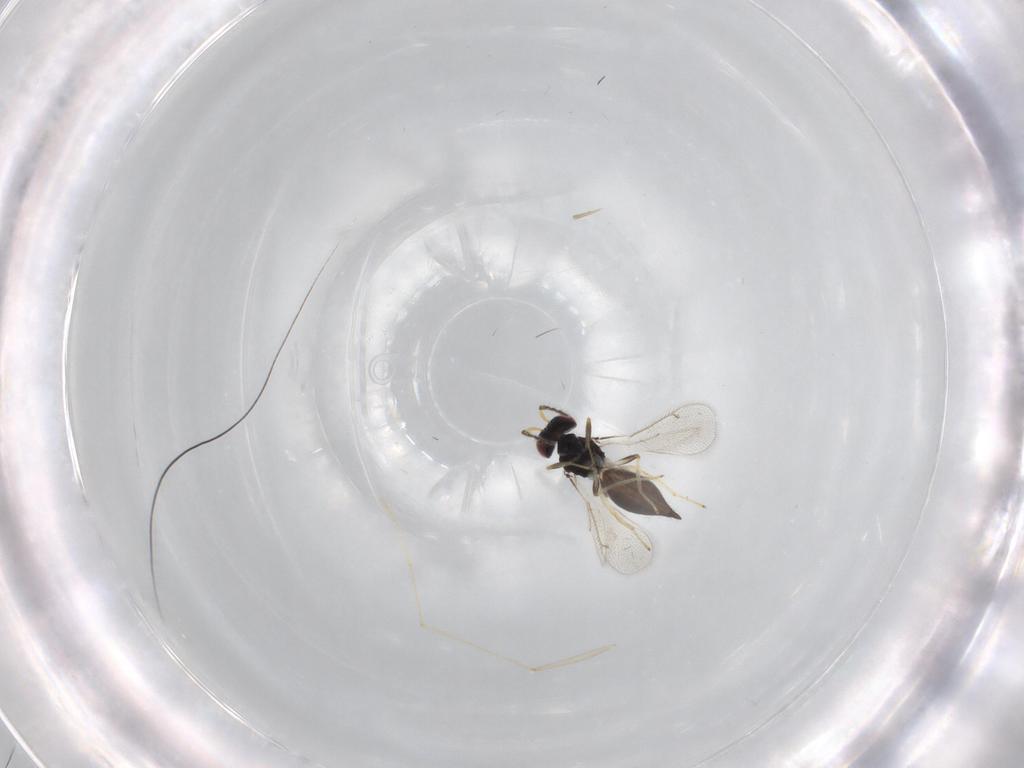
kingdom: Animalia
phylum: Arthropoda
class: Insecta
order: Hymenoptera
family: Eulophidae
